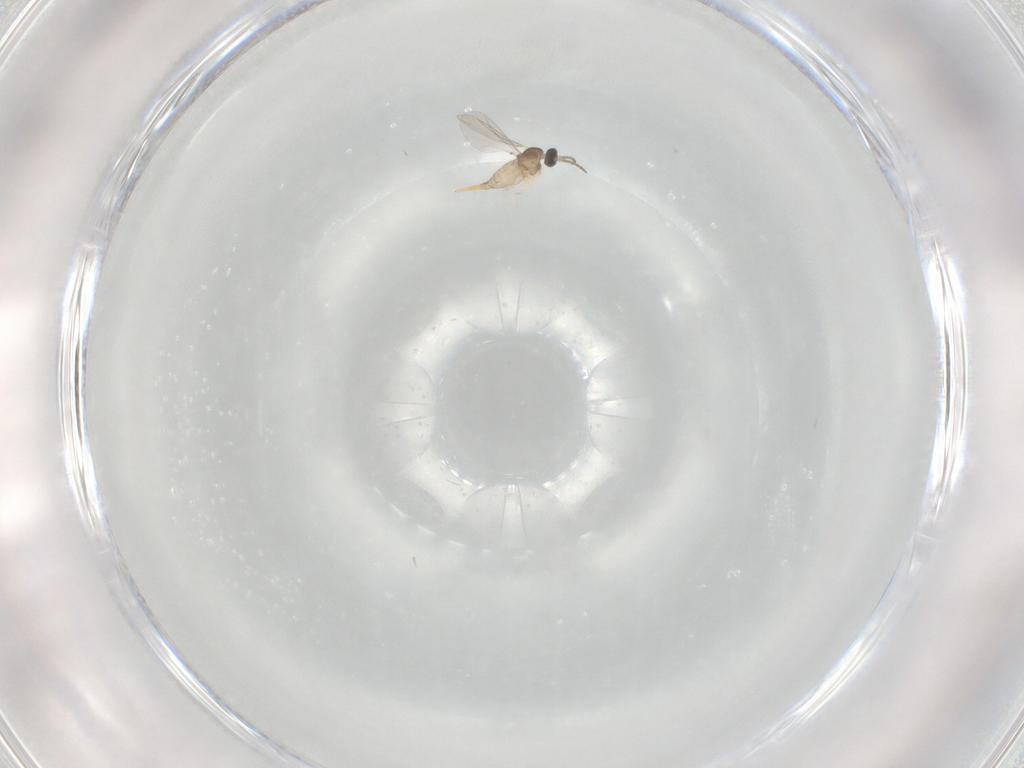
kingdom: Animalia
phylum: Arthropoda
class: Insecta
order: Diptera
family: Cecidomyiidae
